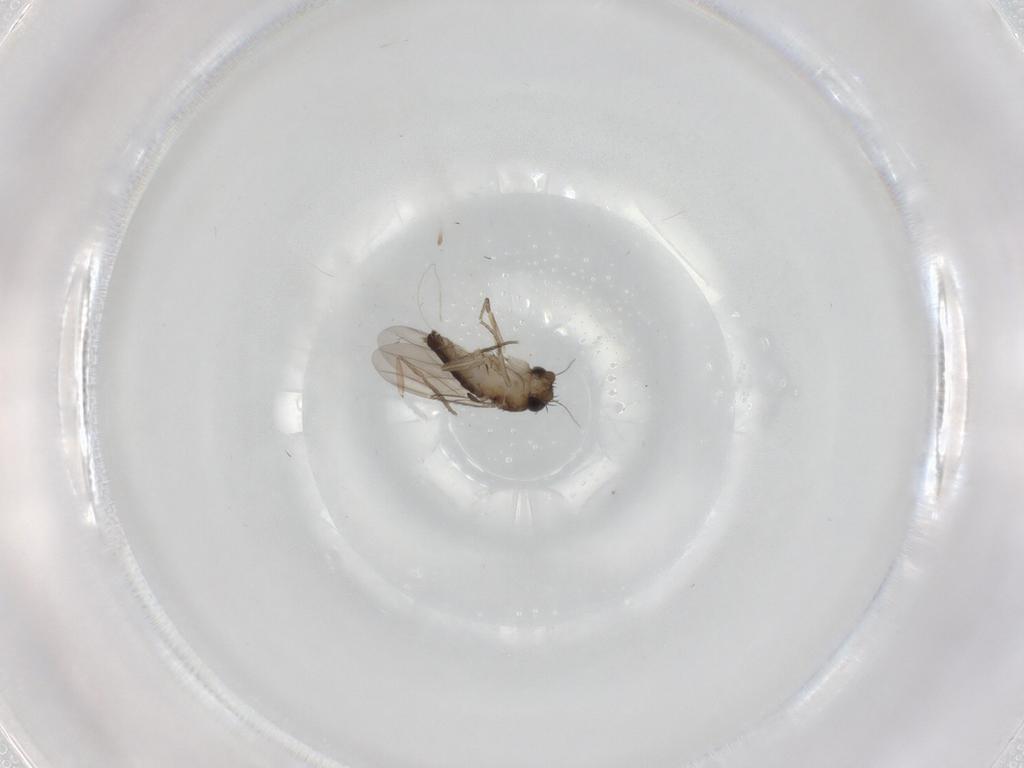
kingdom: Animalia
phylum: Arthropoda
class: Insecta
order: Diptera
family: Phoridae
